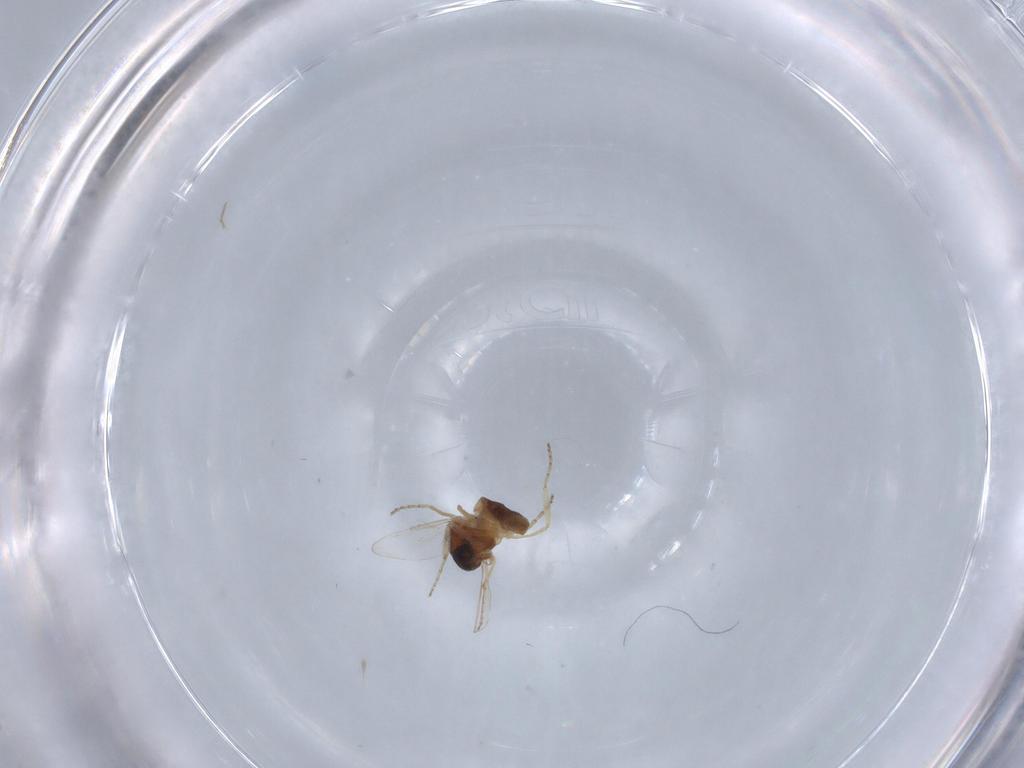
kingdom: Animalia
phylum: Arthropoda
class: Insecta
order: Diptera
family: Ceratopogonidae
